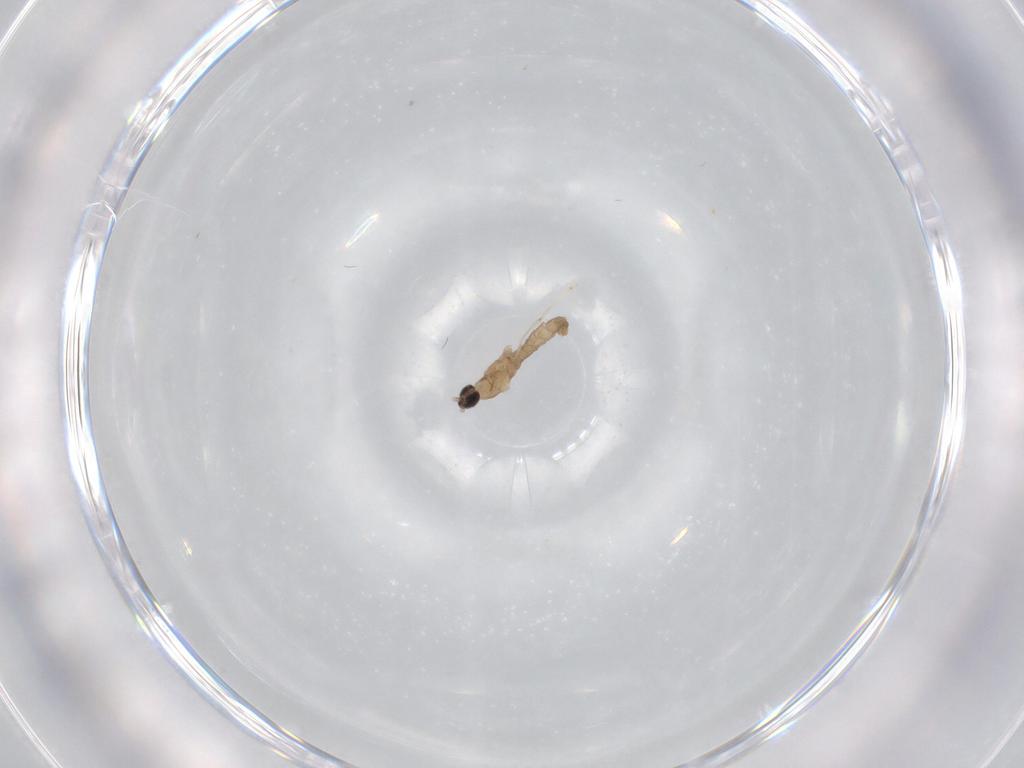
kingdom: Animalia
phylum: Arthropoda
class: Insecta
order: Diptera
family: Cecidomyiidae
